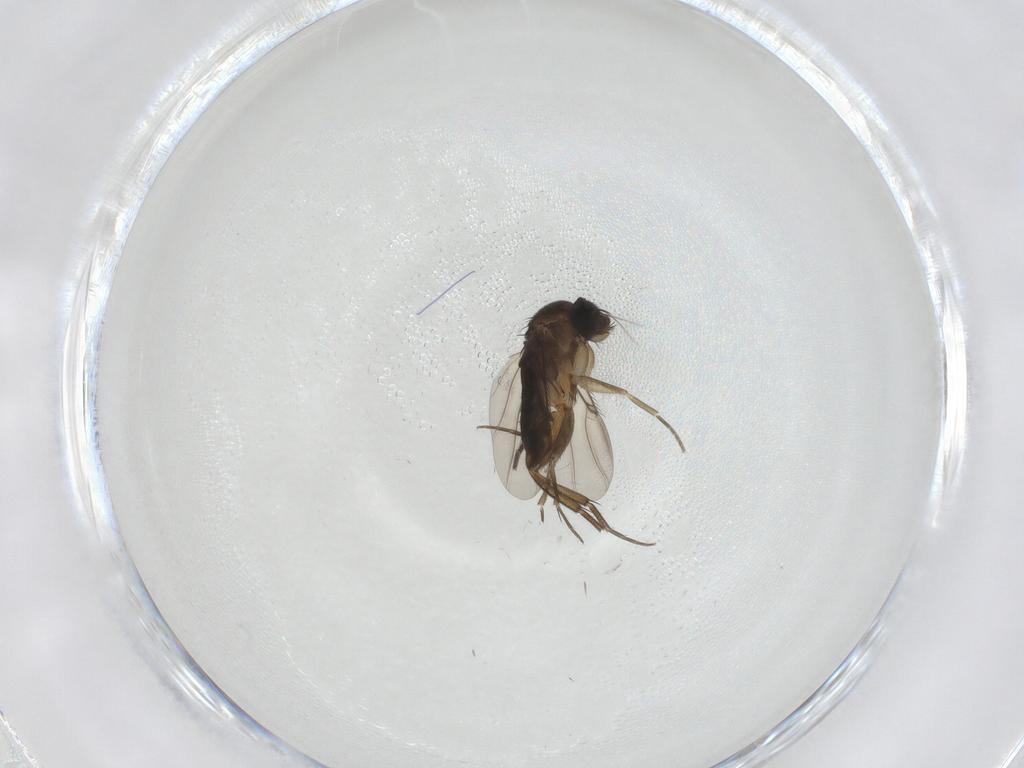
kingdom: Animalia
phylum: Arthropoda
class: Insecta
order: Diptera
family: Phoridae
